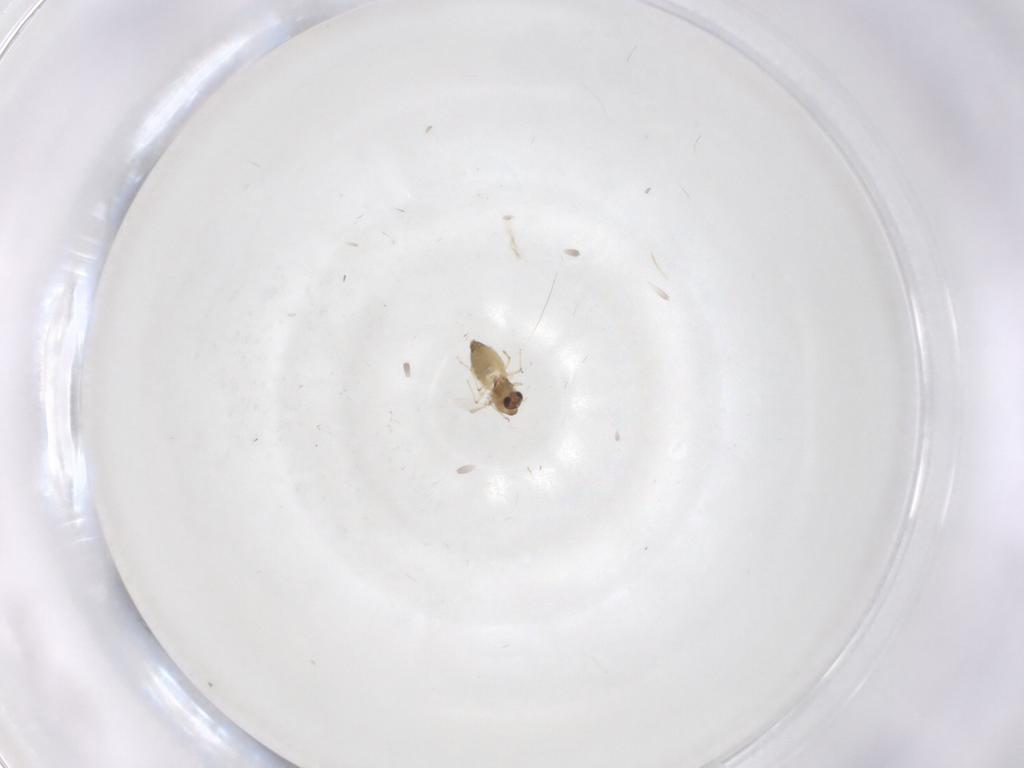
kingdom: Animalia
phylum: Arthropoda
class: Insecta
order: Diptera
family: Chironomidae
